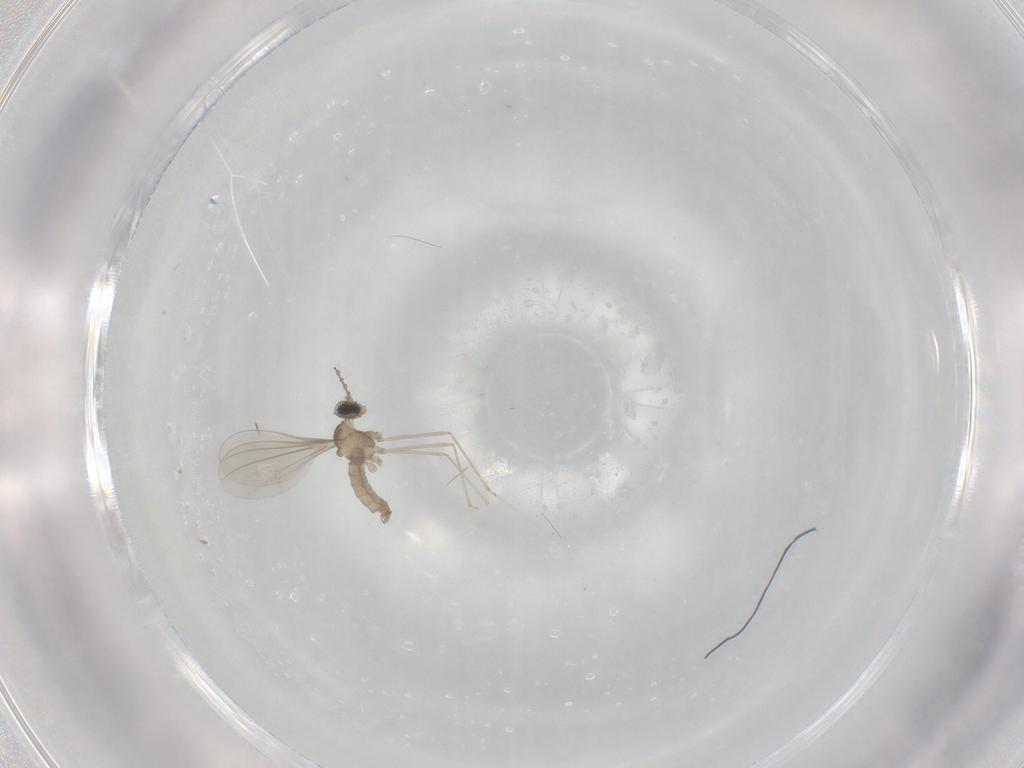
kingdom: Animalia
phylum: Arthropoda
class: Insecta
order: Diptera
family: Cecidomyiidae
